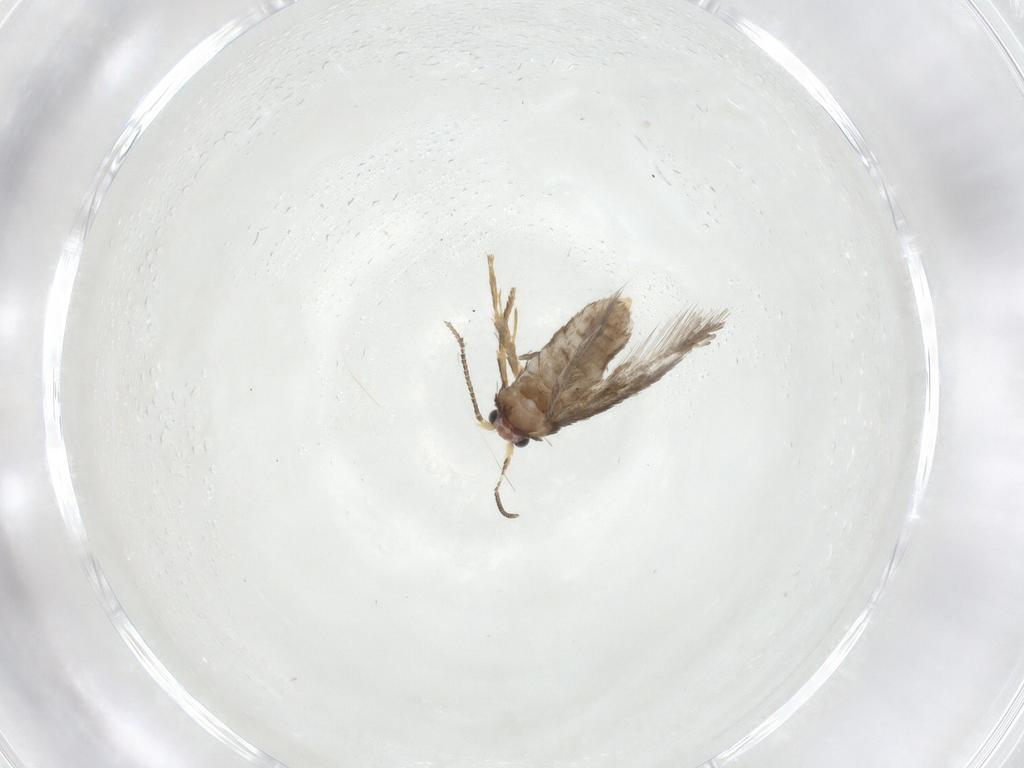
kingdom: Animalia
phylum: Arthropoda
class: Insecta
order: Lepidoptera
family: Nepticulidae
